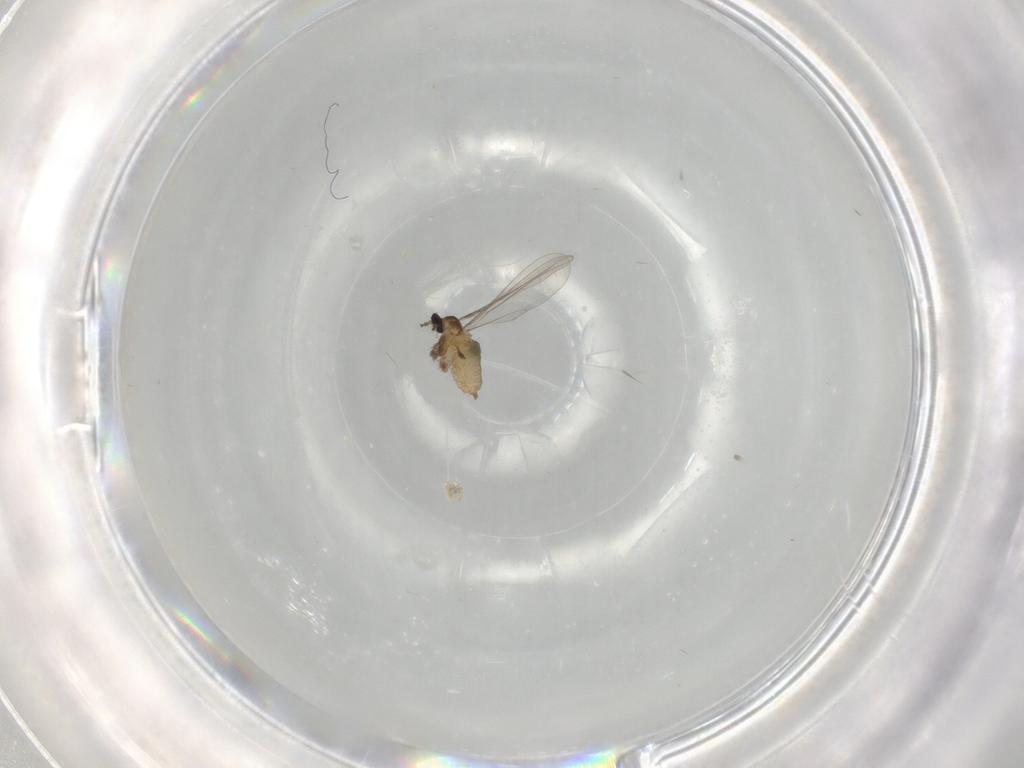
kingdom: Animalia
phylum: Arthropoda
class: Insecta
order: Diptera
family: Cecidomyiidae
